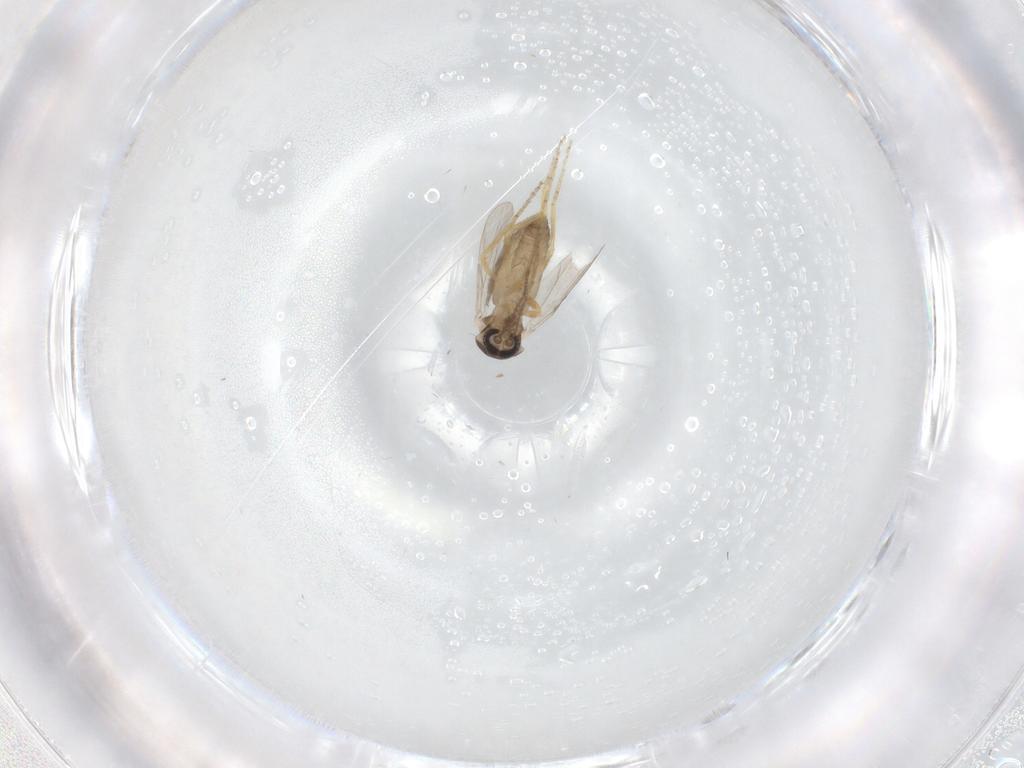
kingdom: Animalia
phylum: Arthropoda
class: Insecta
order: Diptera
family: Ceratopogonidae
